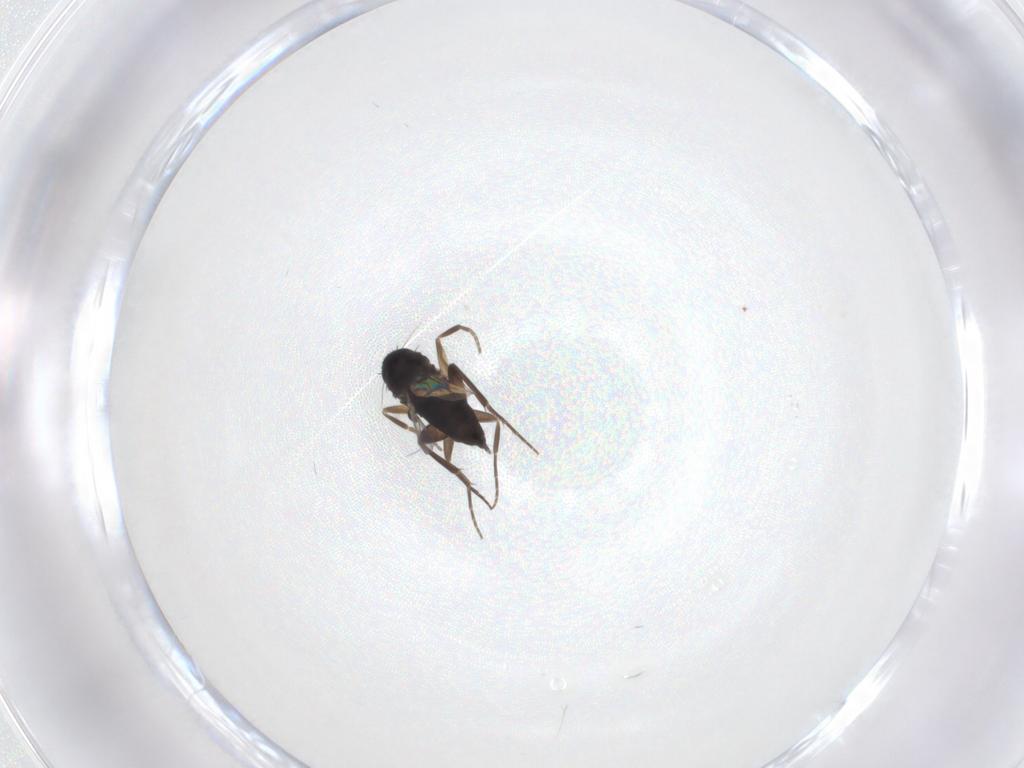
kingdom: Animalia
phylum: Arthropoda
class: Insecta
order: Diptera
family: Phoridae
